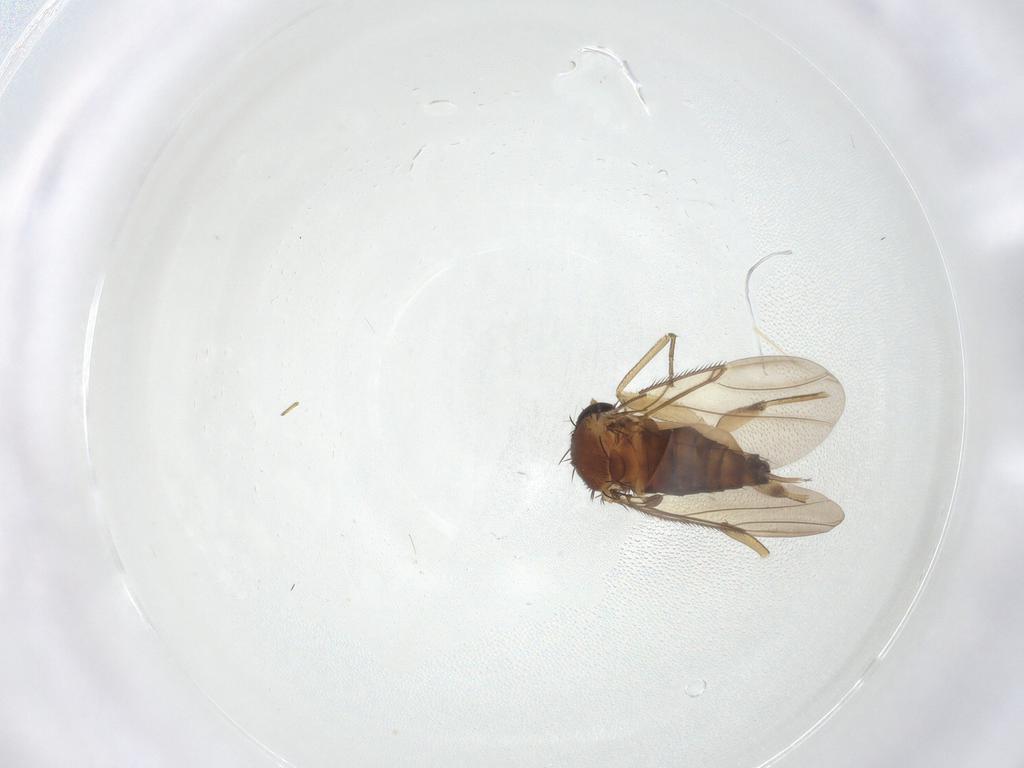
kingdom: Animalia
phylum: Arthropoda
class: Insecta
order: Diptera
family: Phoridae
